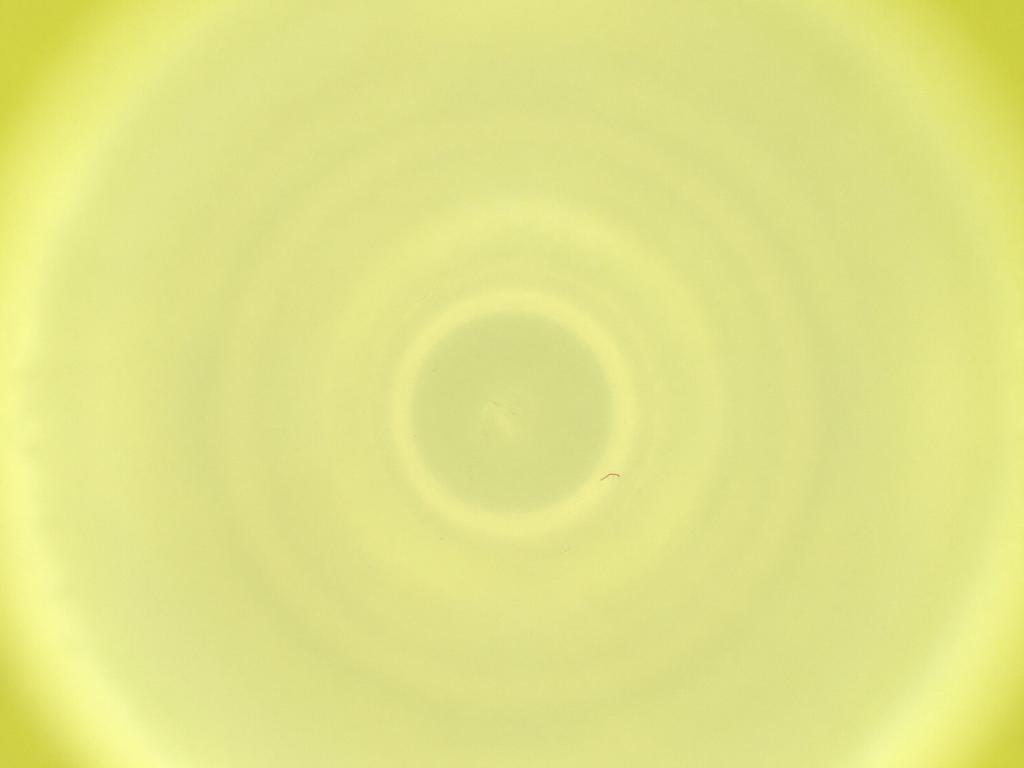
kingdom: Animalia
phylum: Arthropoda
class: Insecta
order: Diptera
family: Cecidomyiidae
